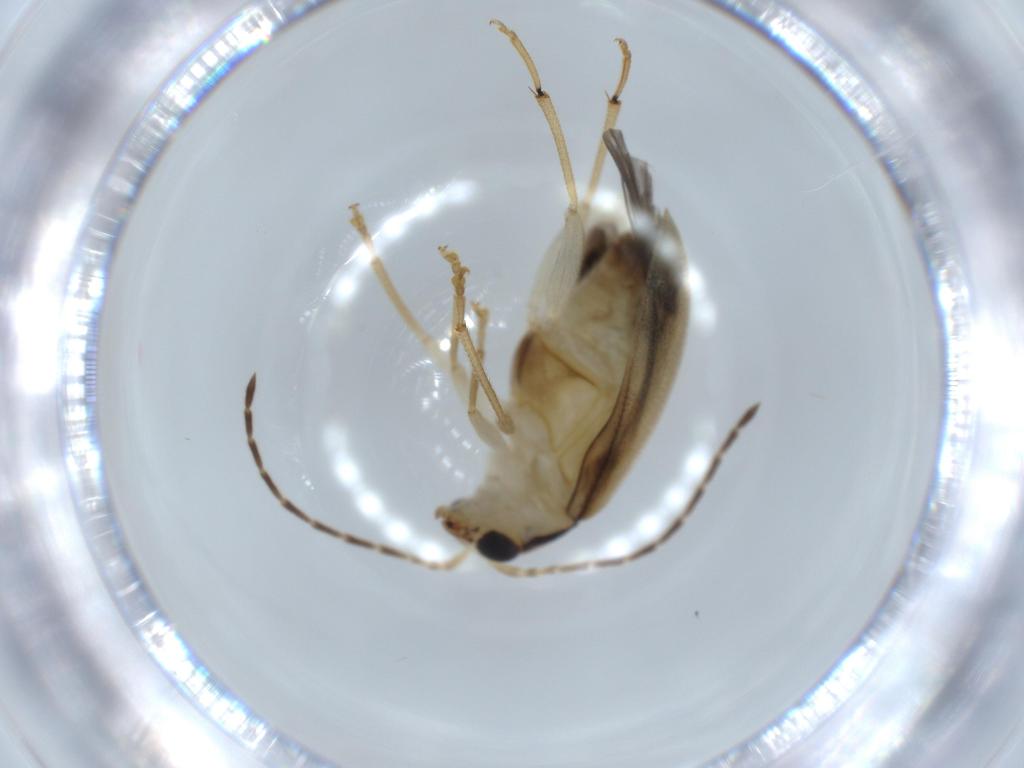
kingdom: Animalia
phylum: Arthropoda
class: Insecta
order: Coleoptera
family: Chrysomelidae
